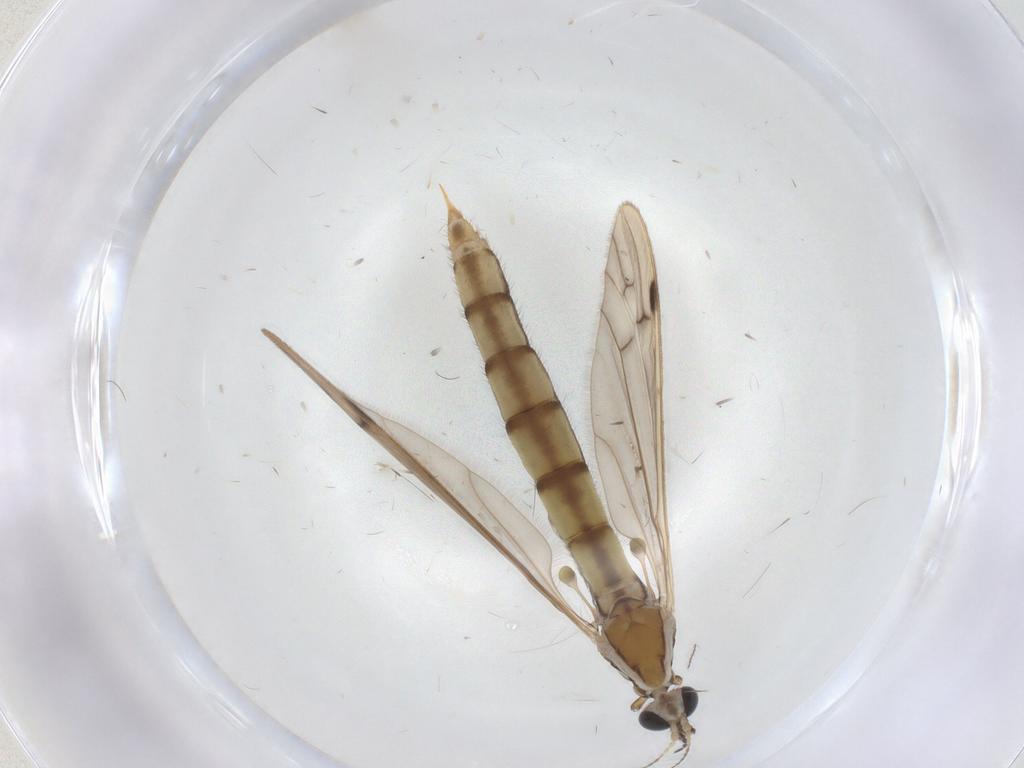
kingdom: Animalia
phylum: Arthropoda
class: Insecta
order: Diptera
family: Limoniidae
